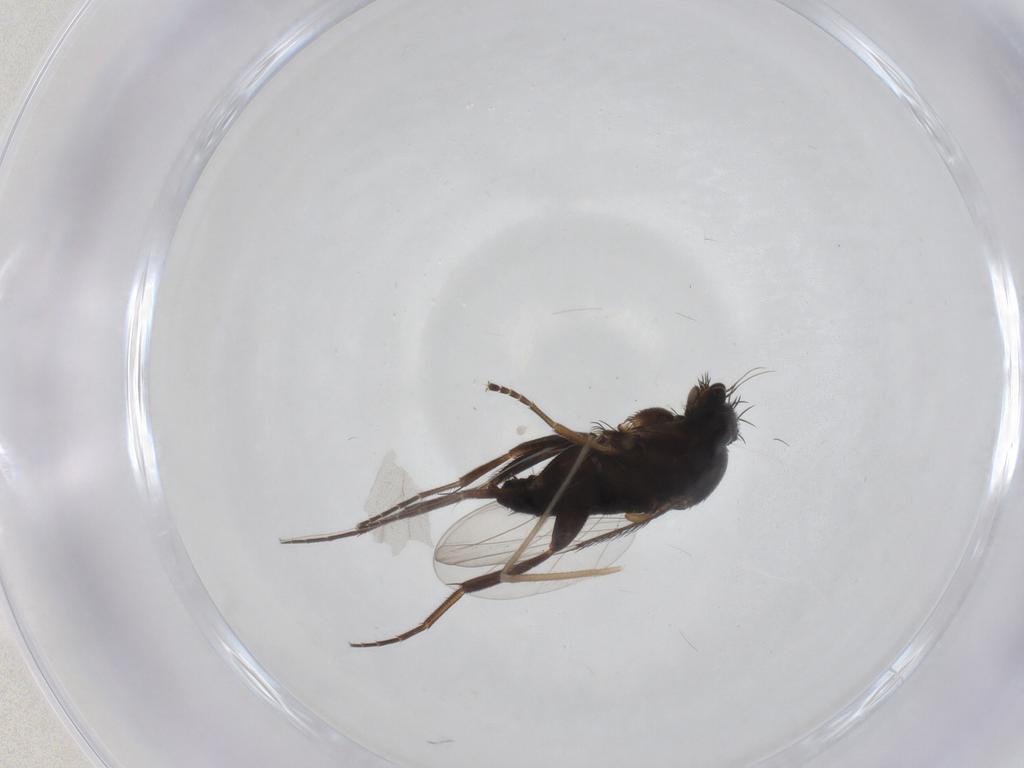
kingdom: Animalia
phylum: Arthropoda
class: Insecta
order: Diptera
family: Phoridae
